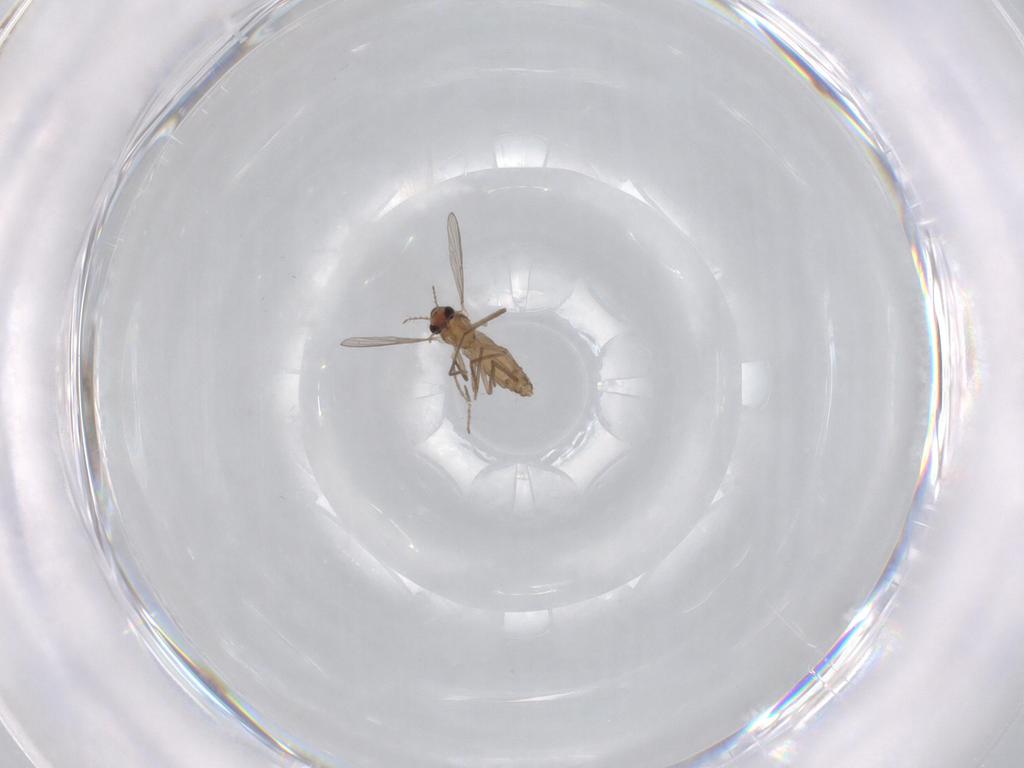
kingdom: Animalia
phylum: Arthropoda
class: Insecta
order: Diptera
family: Chironomidae
